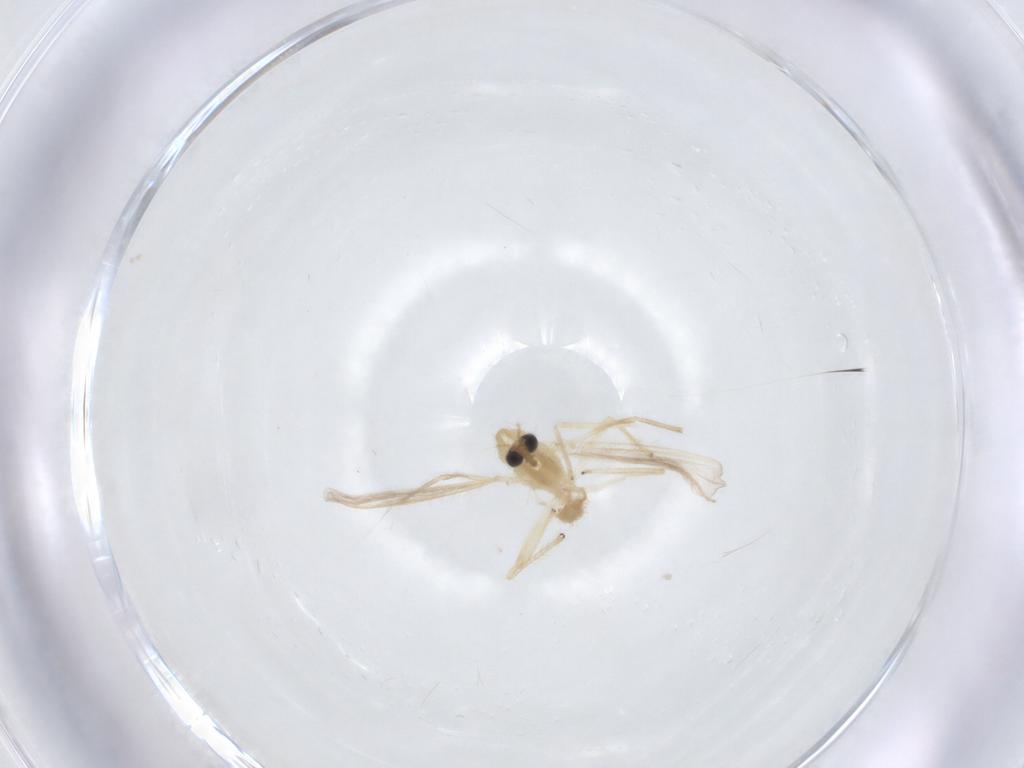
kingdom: Animalia
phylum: Arthropoda
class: Insecta
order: Diptera
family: Chironomidae
